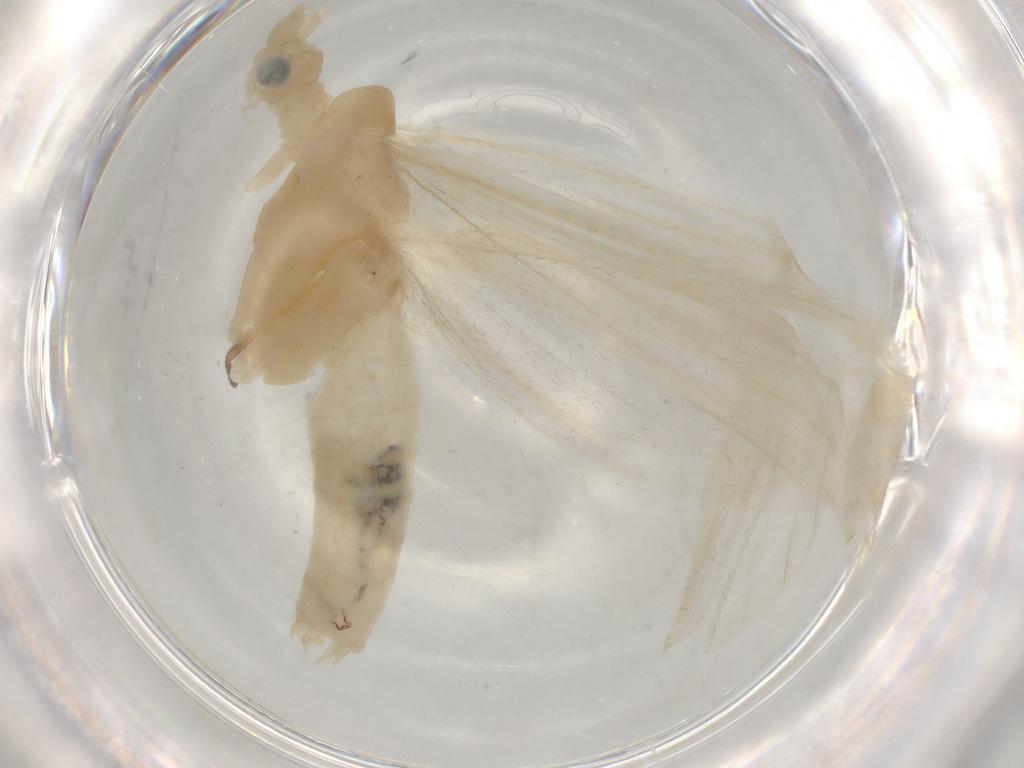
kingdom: Animalia
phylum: Arthropoda
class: Insecta
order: Trichoptera
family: Leptoceridae
